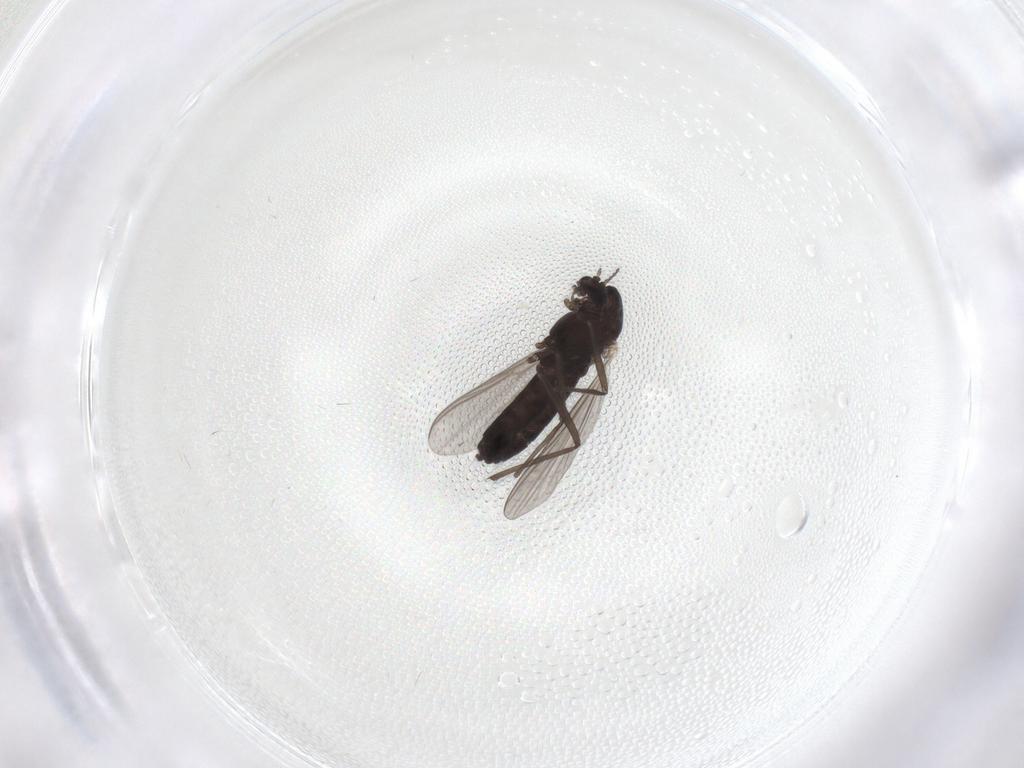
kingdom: Animalia
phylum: Arthropoda
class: Insecta
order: Diptera
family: Chironomidae
